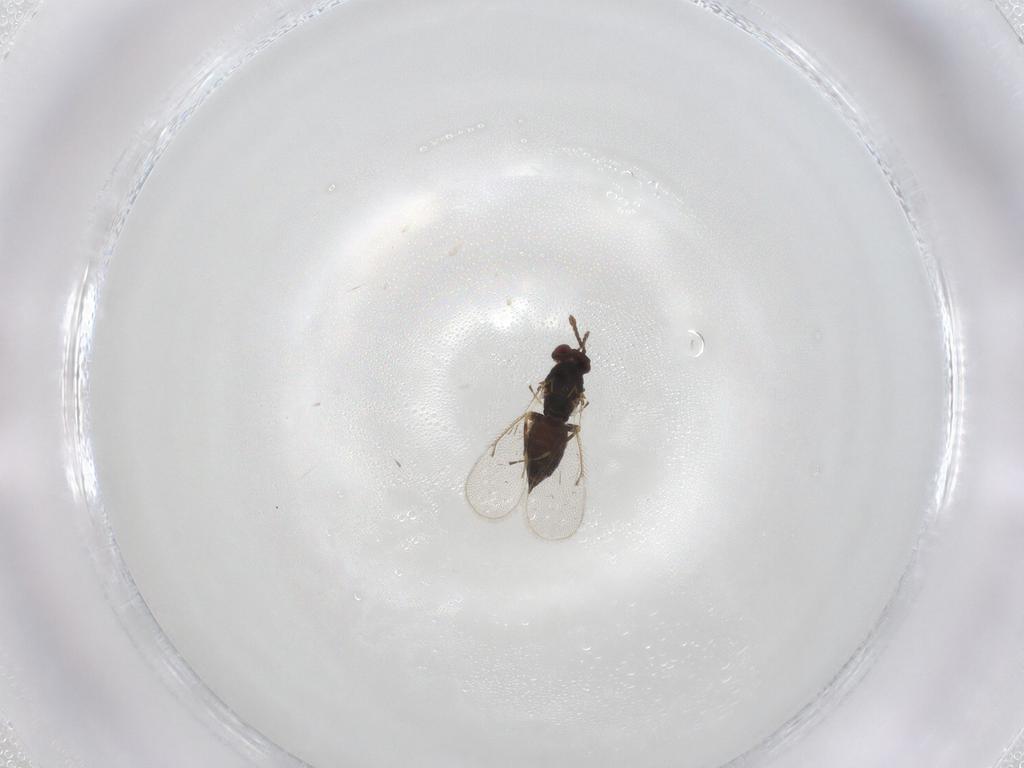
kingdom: Animalia
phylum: Arthropoda
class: Insecta
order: Hymenoptera
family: Eulophidae
